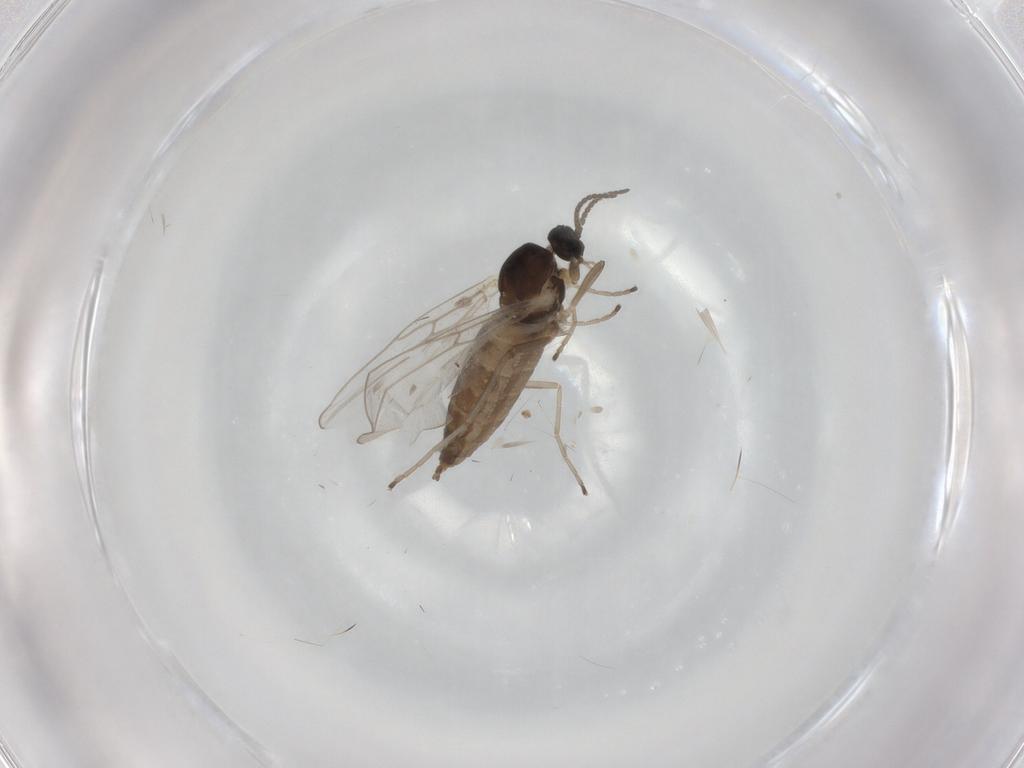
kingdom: Animalia
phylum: Arthropoda
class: Insecta
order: Diptera
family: Cecidomyiidae
